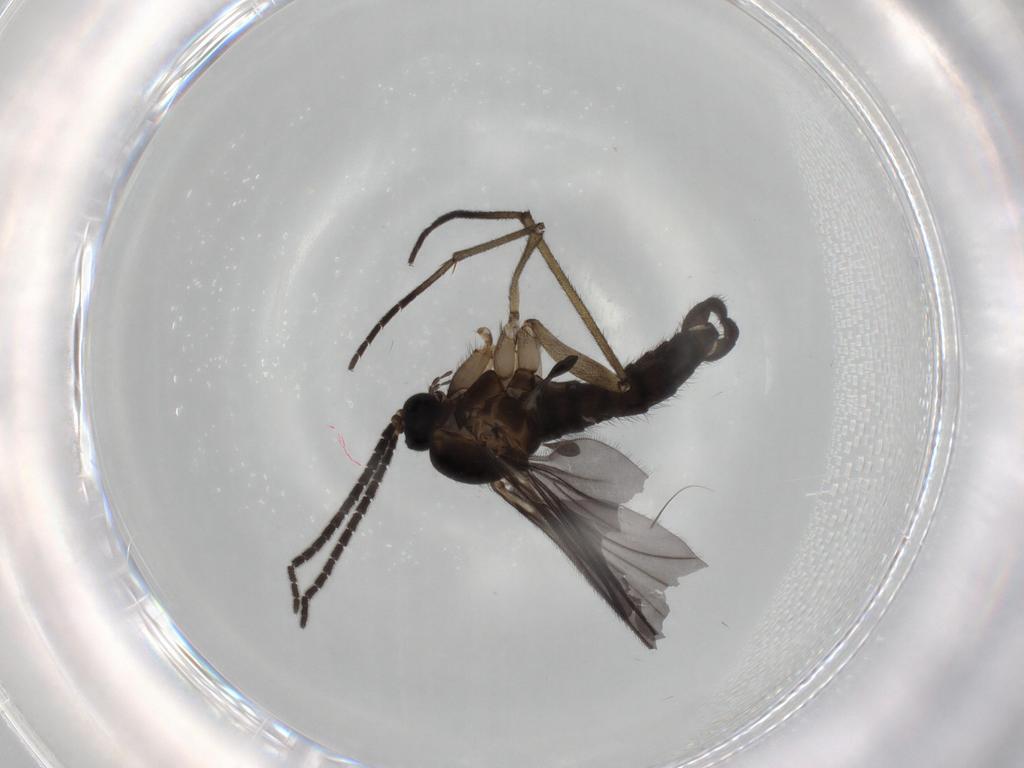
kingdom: Animalia
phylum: Arthropoda
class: Insecta
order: Diptera
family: Sciaridae
